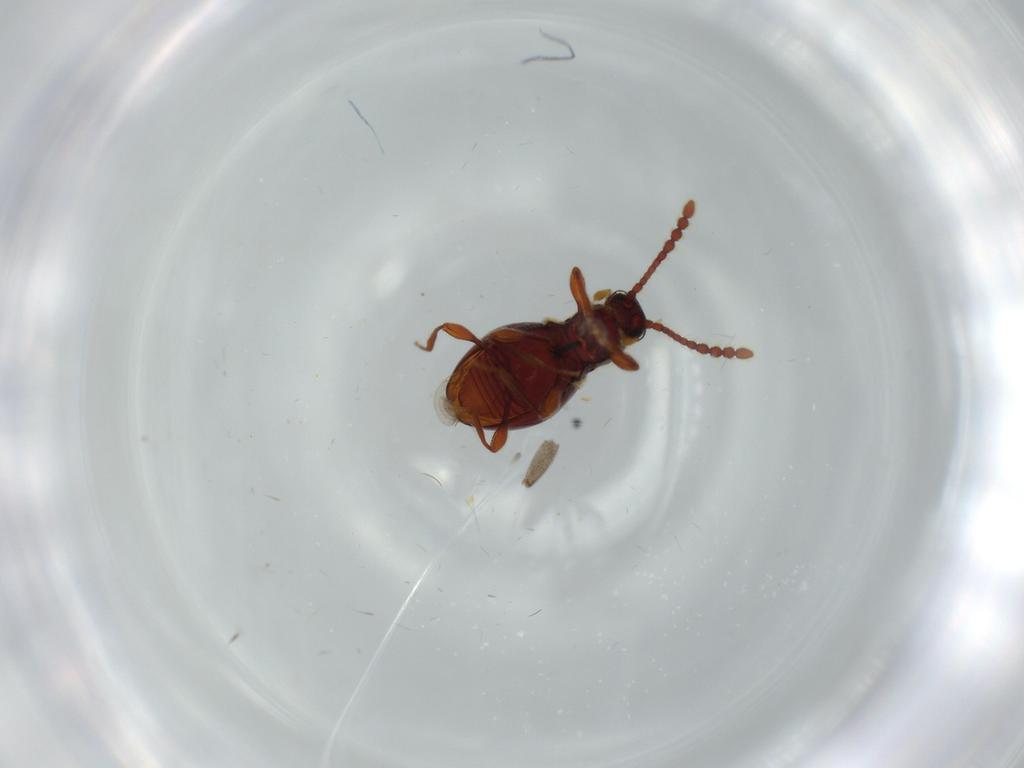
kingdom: Animalia
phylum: Arthropoda
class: Insecta
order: Coleoptera
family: Staphylinidae
